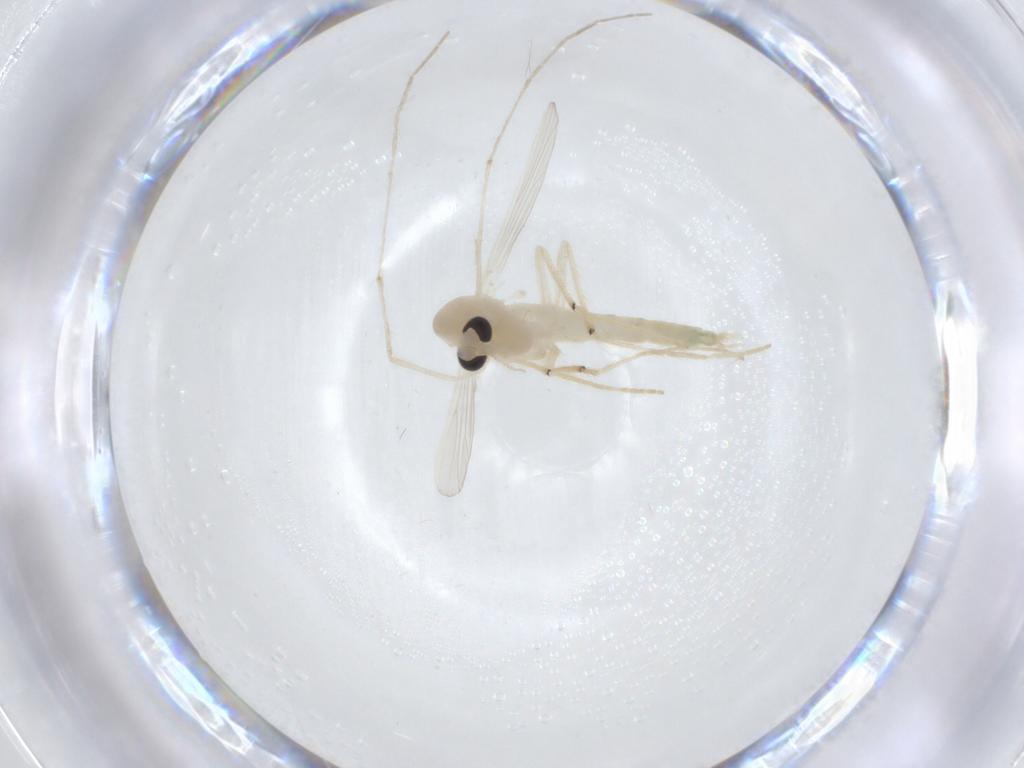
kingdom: Animalia
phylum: Arthropoda
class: Insecta
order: Diptera
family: Chironomidae
